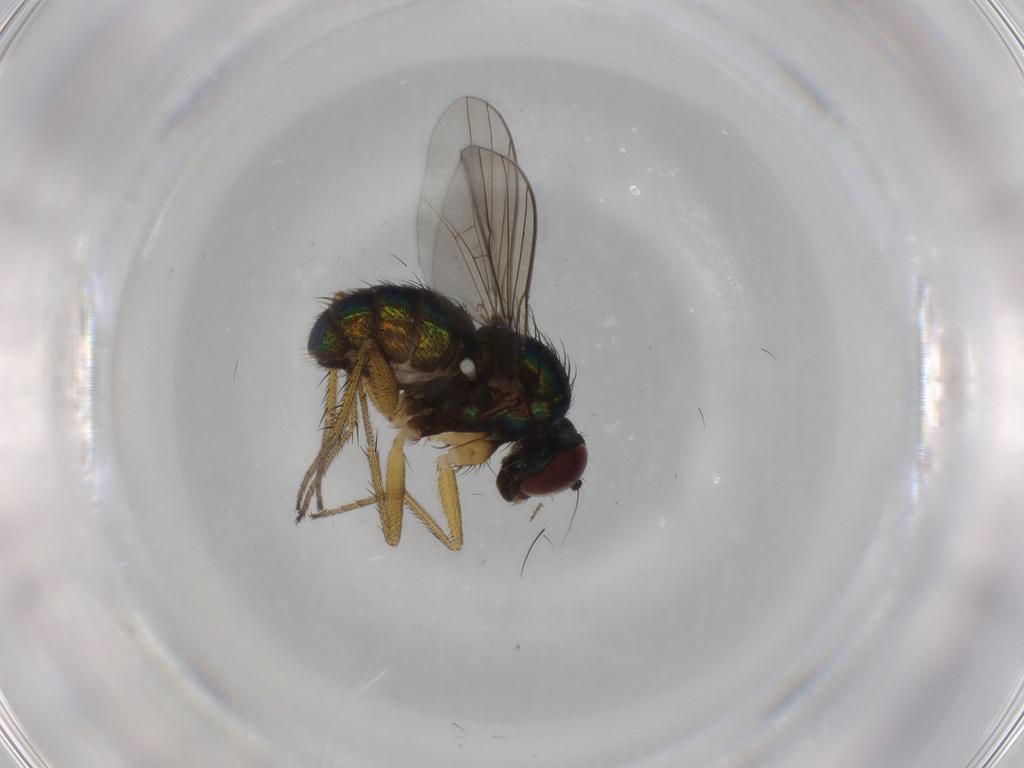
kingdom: Animalia
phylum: Arthropoda
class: Insecta
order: Diptera
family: Dolichopodidae
